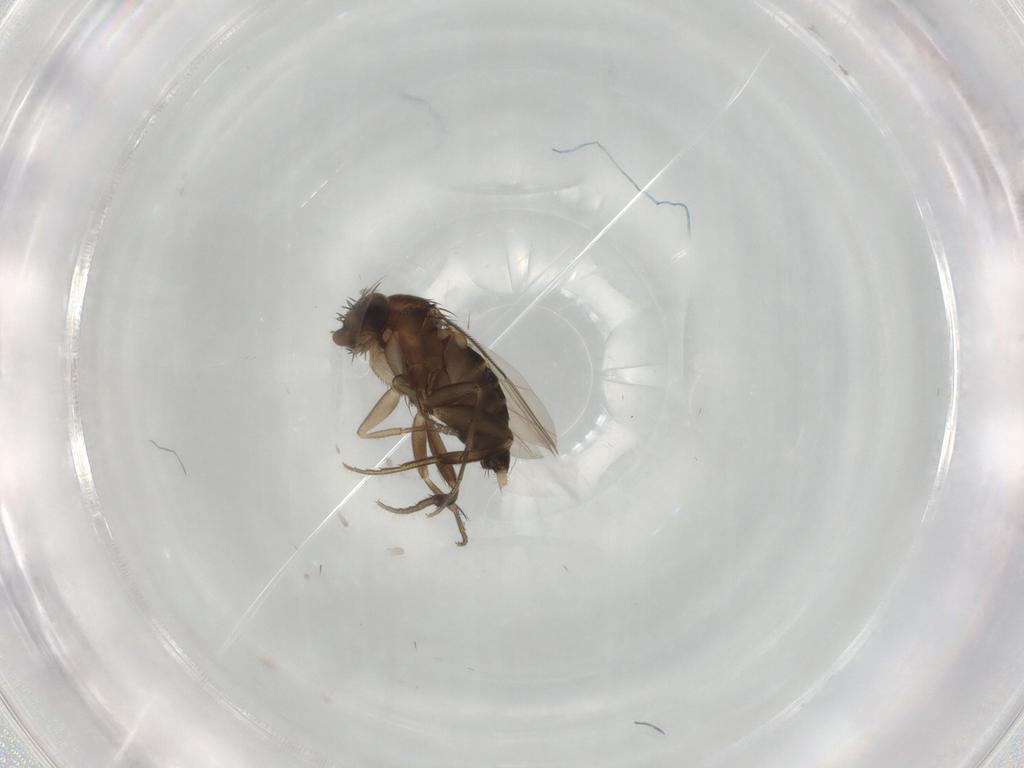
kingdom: Animalia
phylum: Arthropoda
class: Insecta
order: Diptera
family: Phoridae
